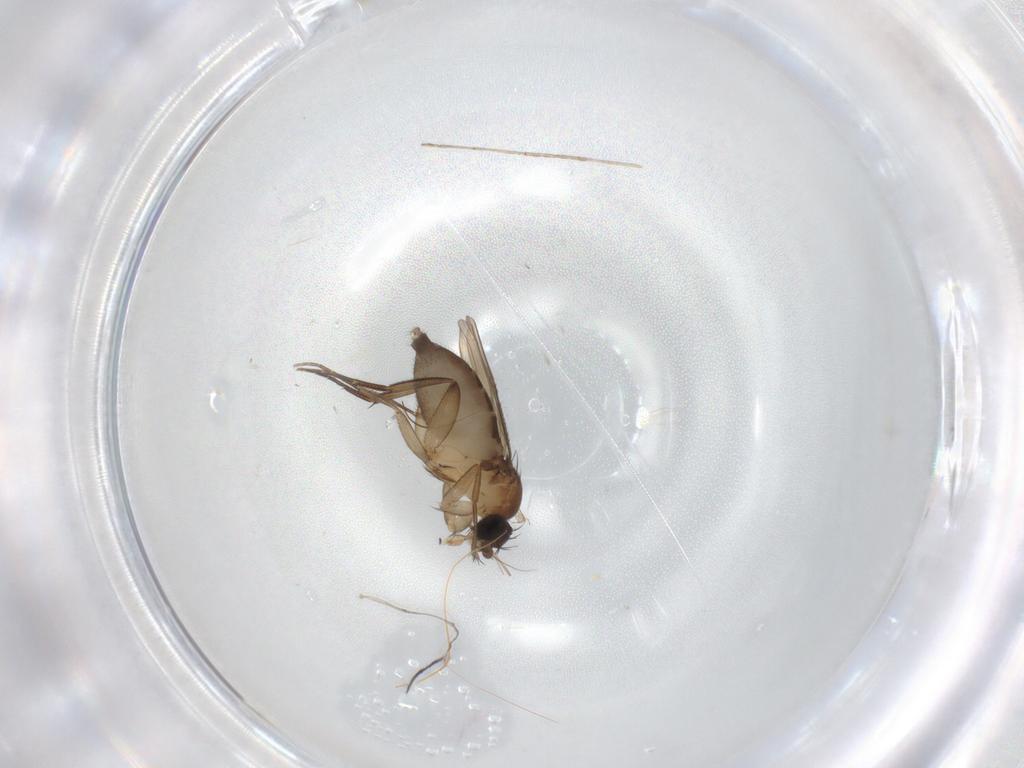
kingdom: Animalia
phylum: Arthropoda
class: Insecta
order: Diptera
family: Phoridae
